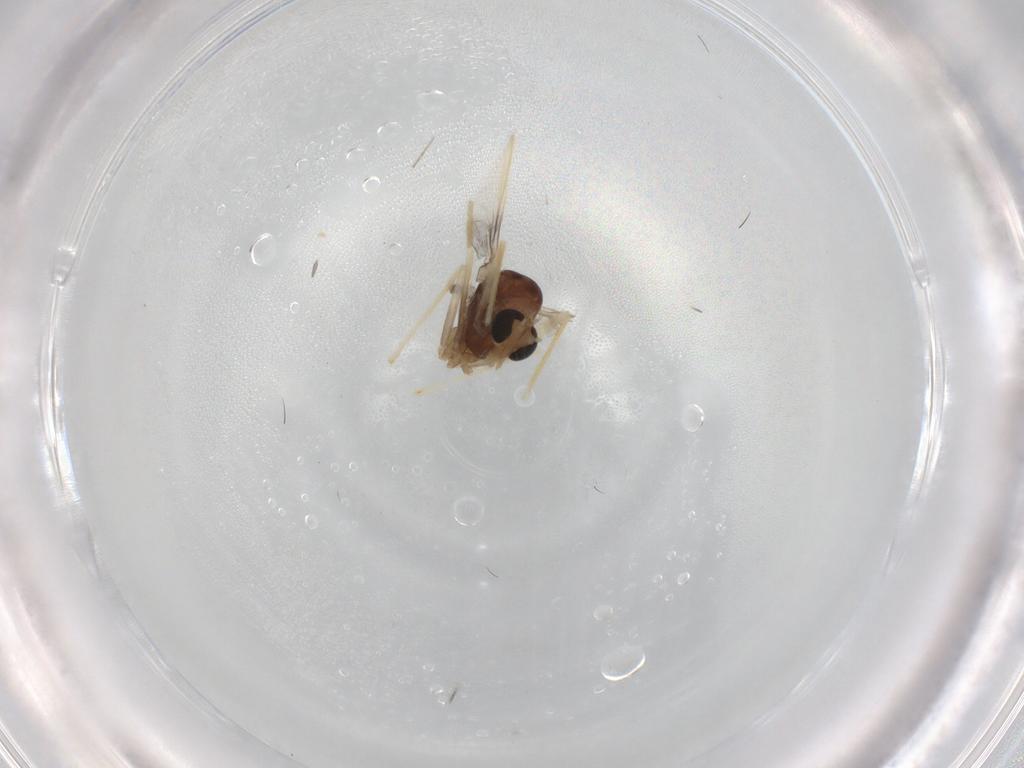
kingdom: Animalia
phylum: Arthropoda
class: Insecta
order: Diptera
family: Chironomidae
